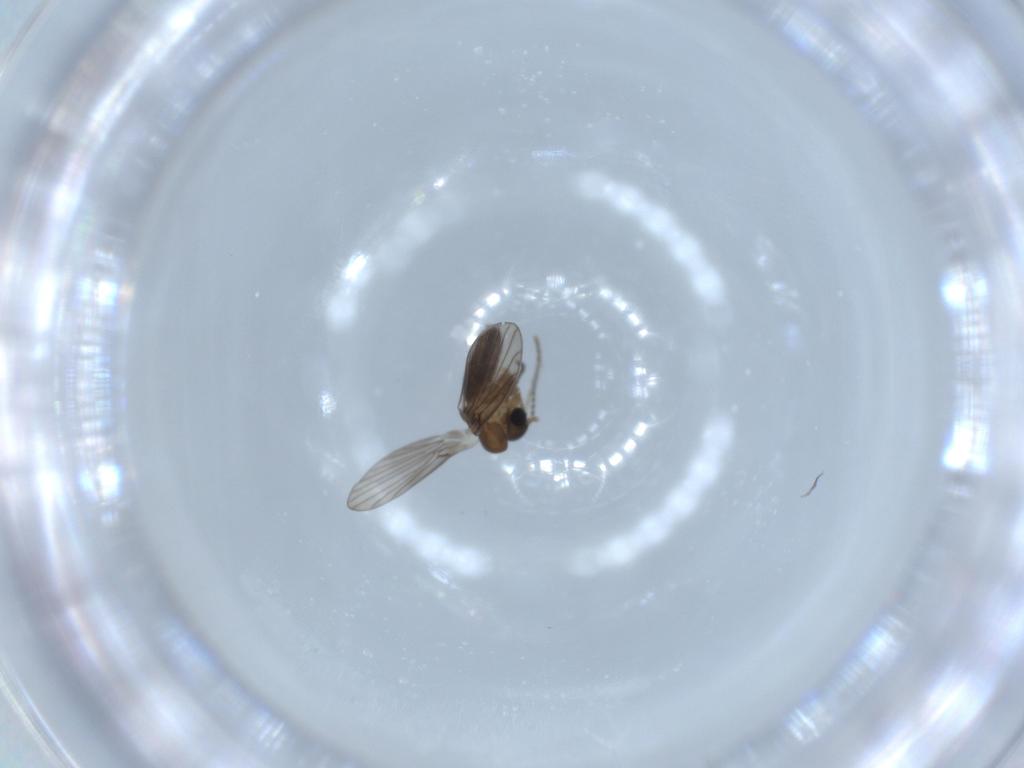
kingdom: Animalia
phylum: Arthropoda
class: Insecta
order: Diptera
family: Psychodidae
